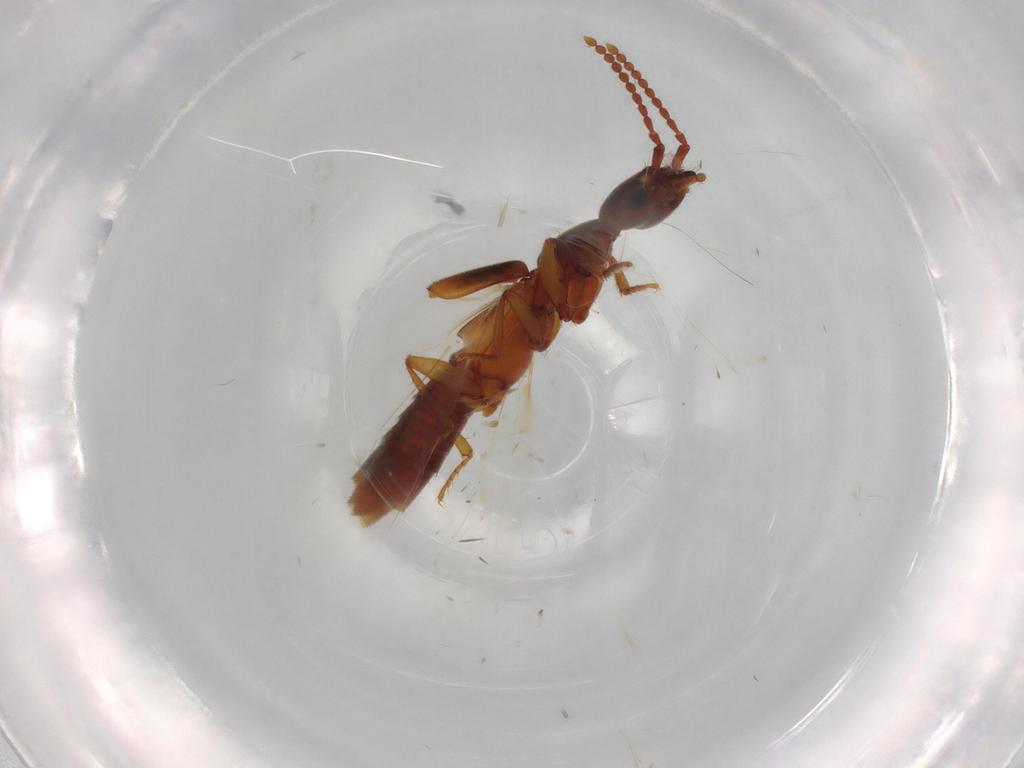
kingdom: Animalia
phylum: Arthropoda
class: Insecta
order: Coleoptera
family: Staphylinidae
